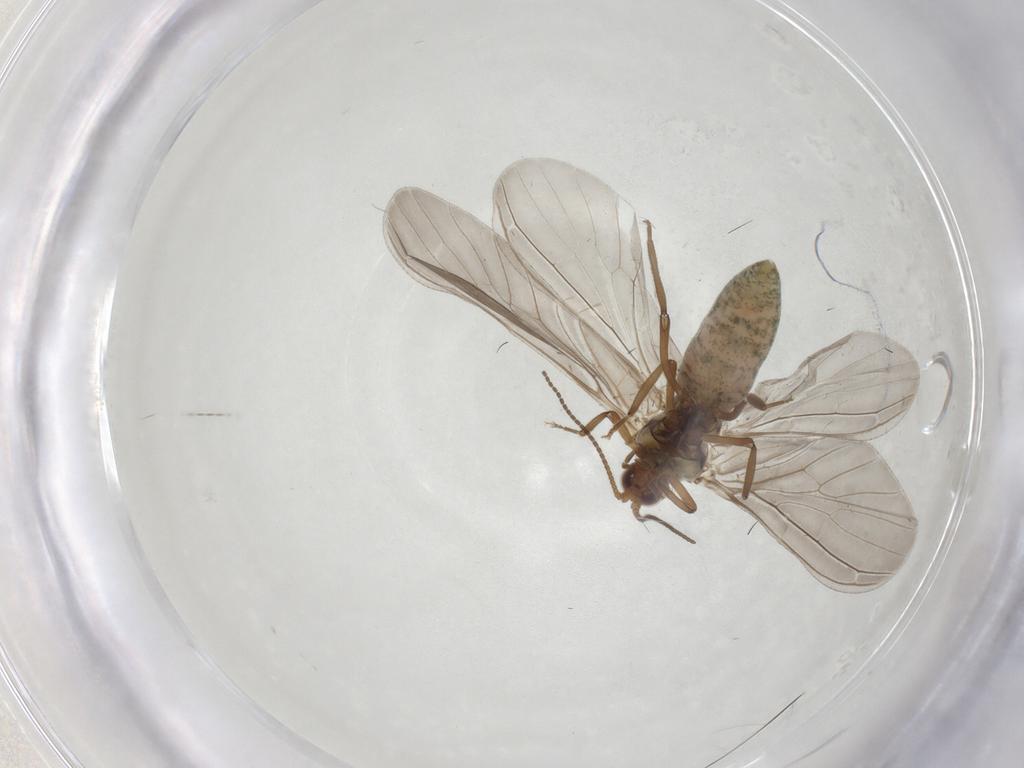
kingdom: Animalia
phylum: Arthropoda
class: Insecta
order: Neuroptera
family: Coniopterygidae
